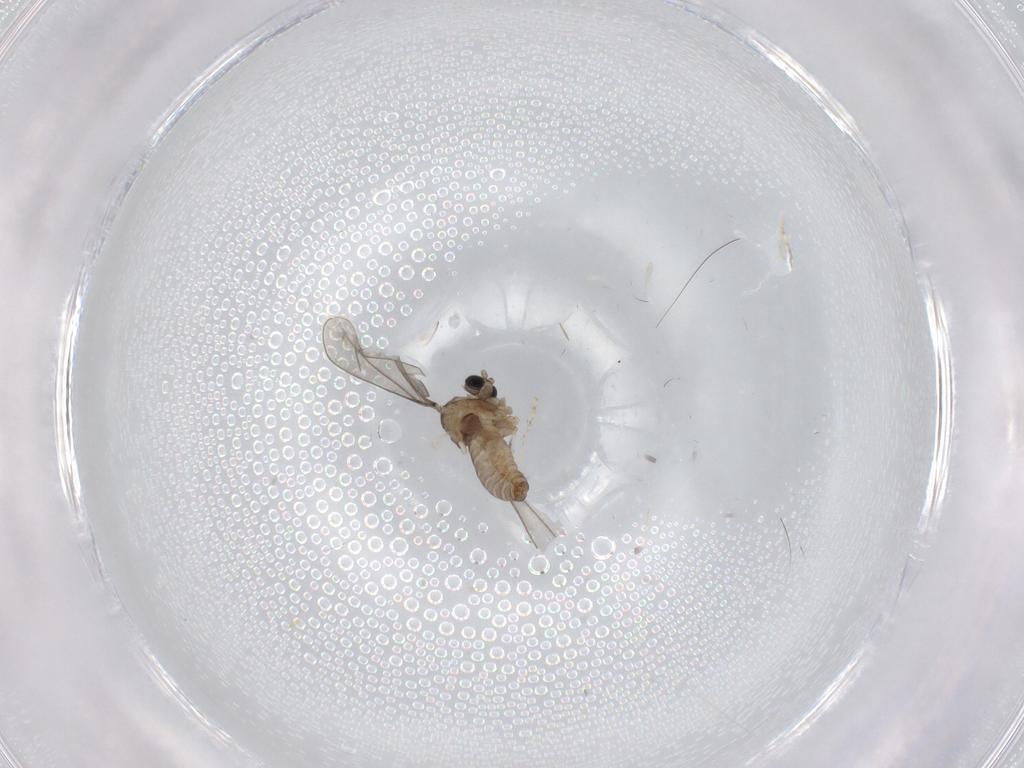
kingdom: Animalia
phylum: Arthropoda
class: Insecta
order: Diptera
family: Cecidomyiidae
